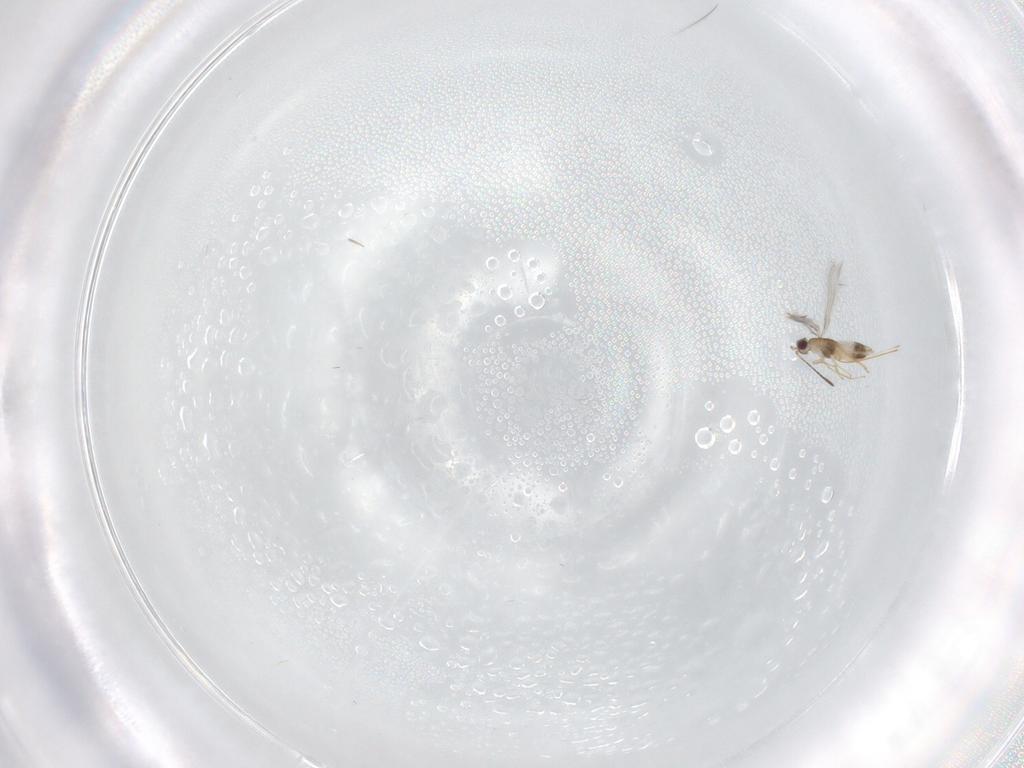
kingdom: Animalia
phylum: Arthropoda
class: Insecta
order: Hymenoptera
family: Mymaridae
